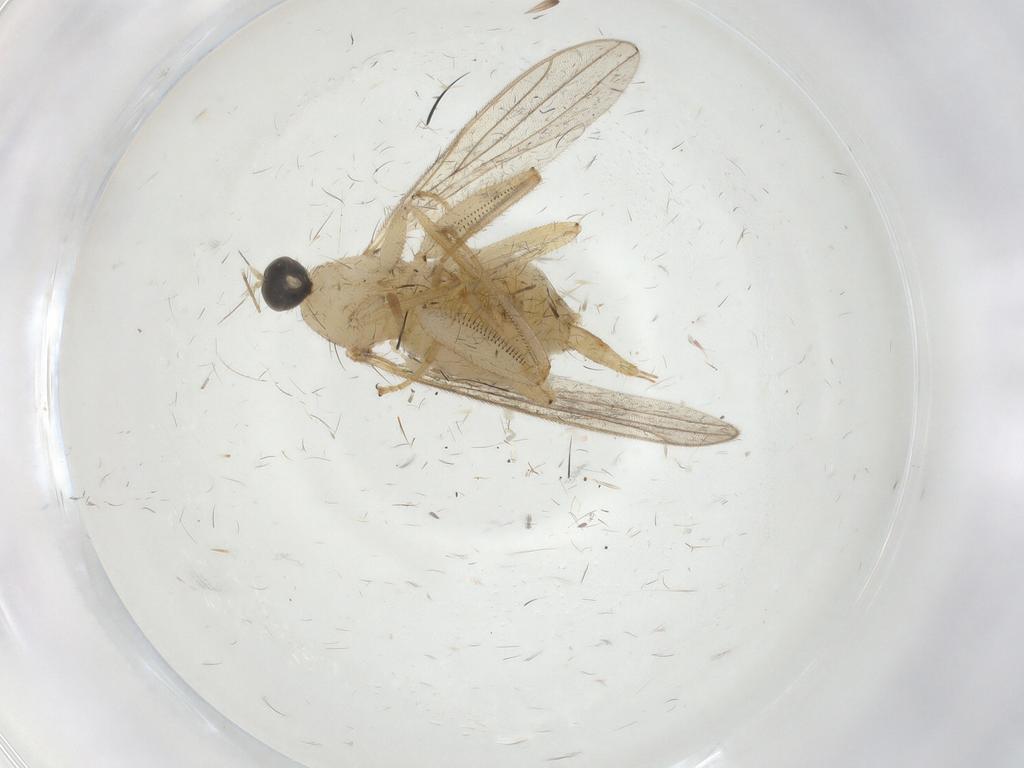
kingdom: Animalia
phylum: Arthropoda
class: Insecta
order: Diptera
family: Hybotidae
